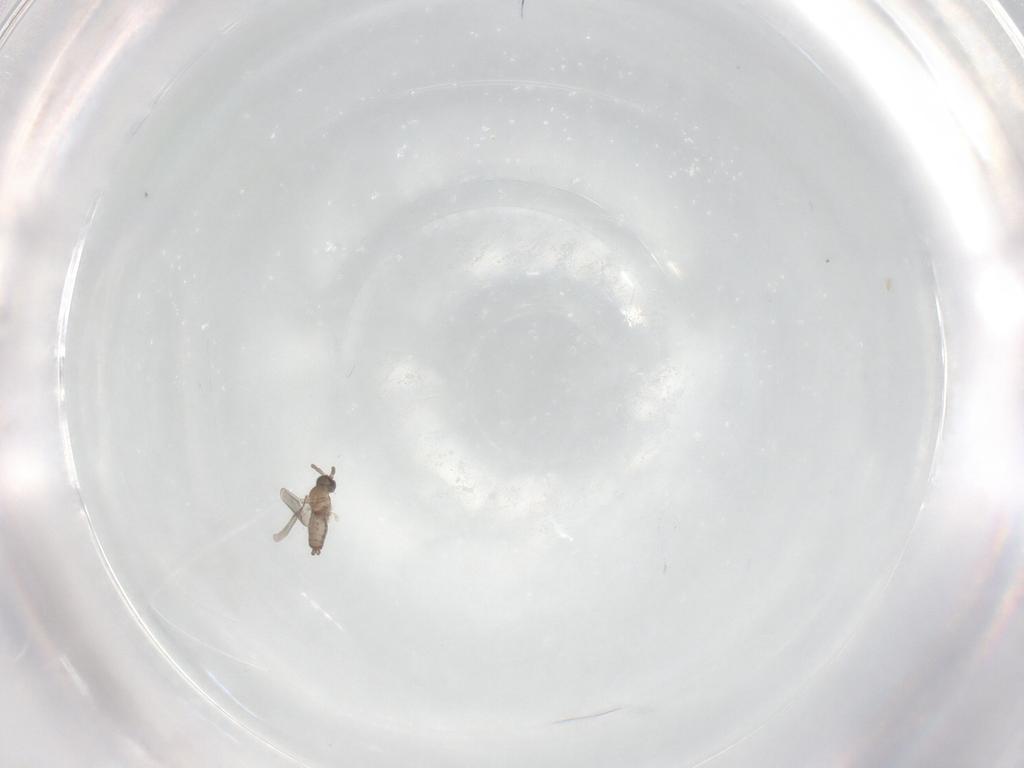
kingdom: Animalia
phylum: Arthropoda
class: Insecta
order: Diptera
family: Cecidomyiidae
